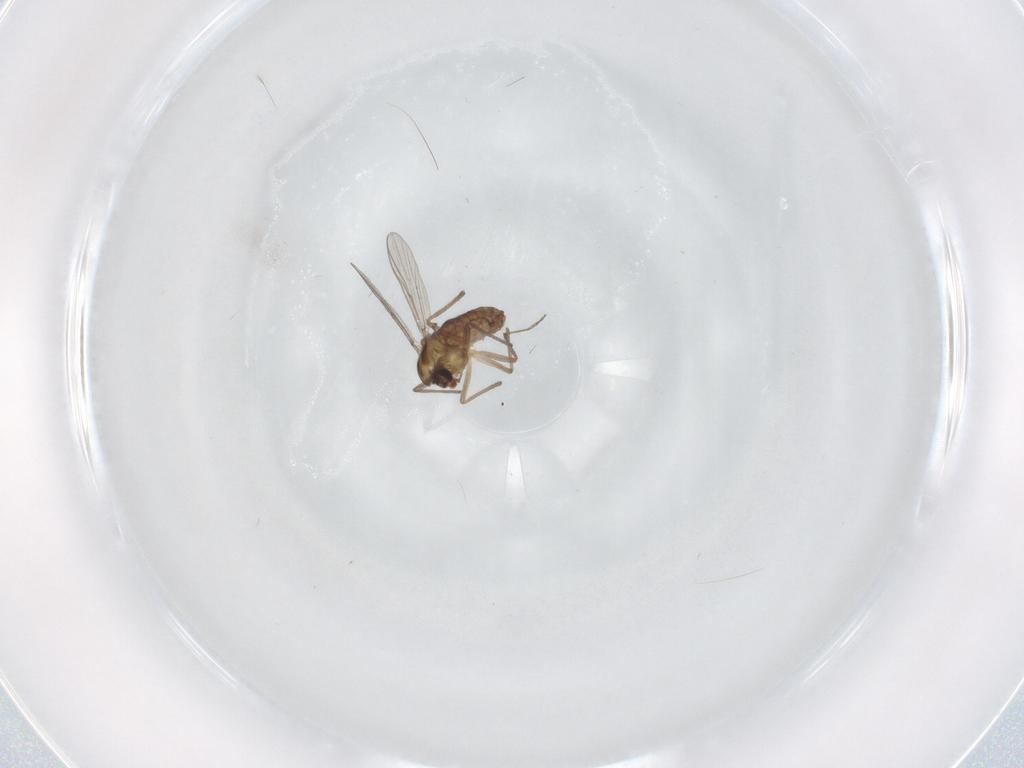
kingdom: Animalia
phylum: Arthropoda
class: Insecta
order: Diptera
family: Chironomidae
